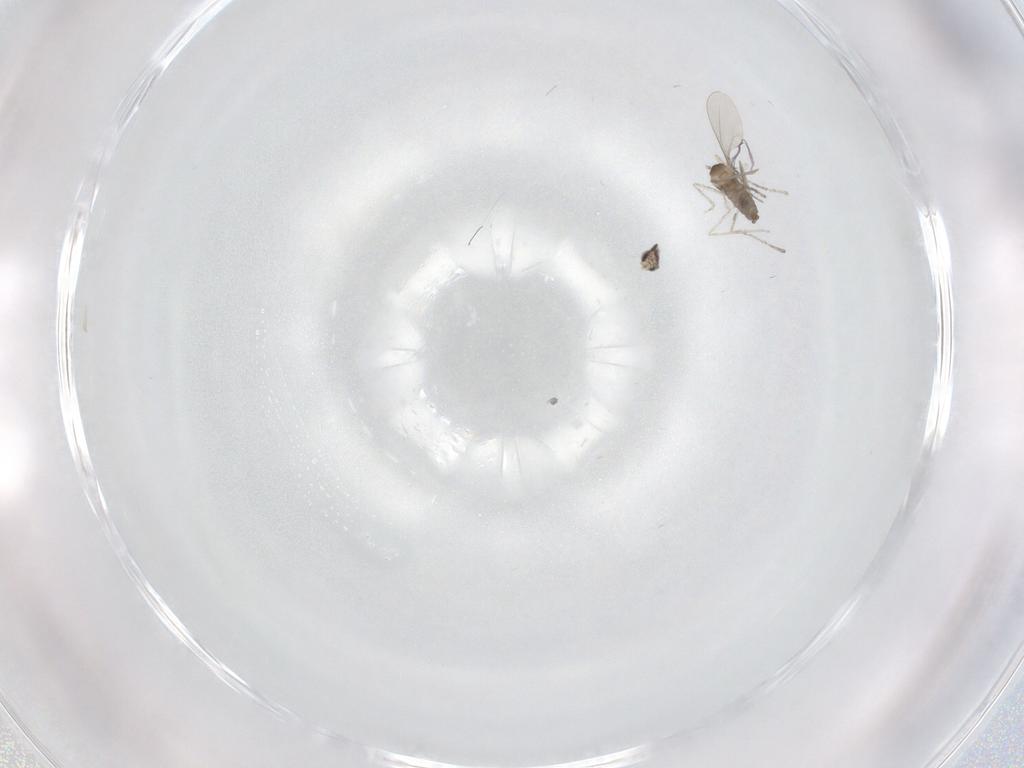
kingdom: Animalia
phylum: Arthropoda
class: Insecta
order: Diptera
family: Cecidomyiidae
